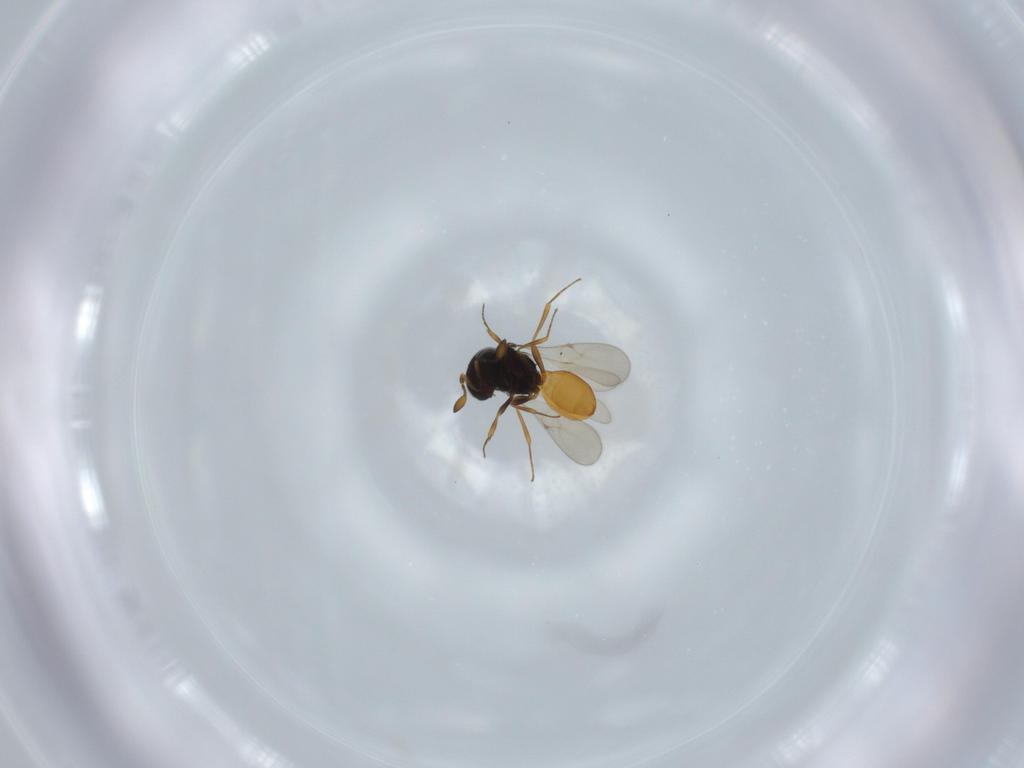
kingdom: Animalia
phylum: Arthropoda
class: Insecta
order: Hymenoptera
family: Scelionidae
